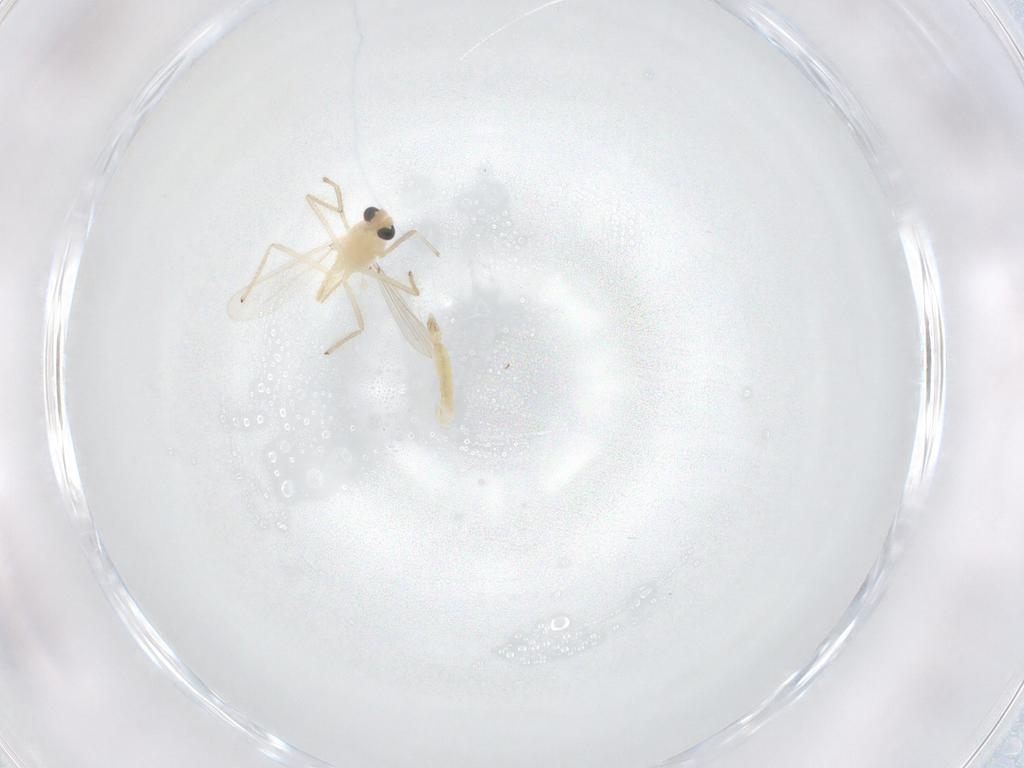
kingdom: Animalia
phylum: Arthropoda
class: Insecta
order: Diptera
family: Chironomidae
